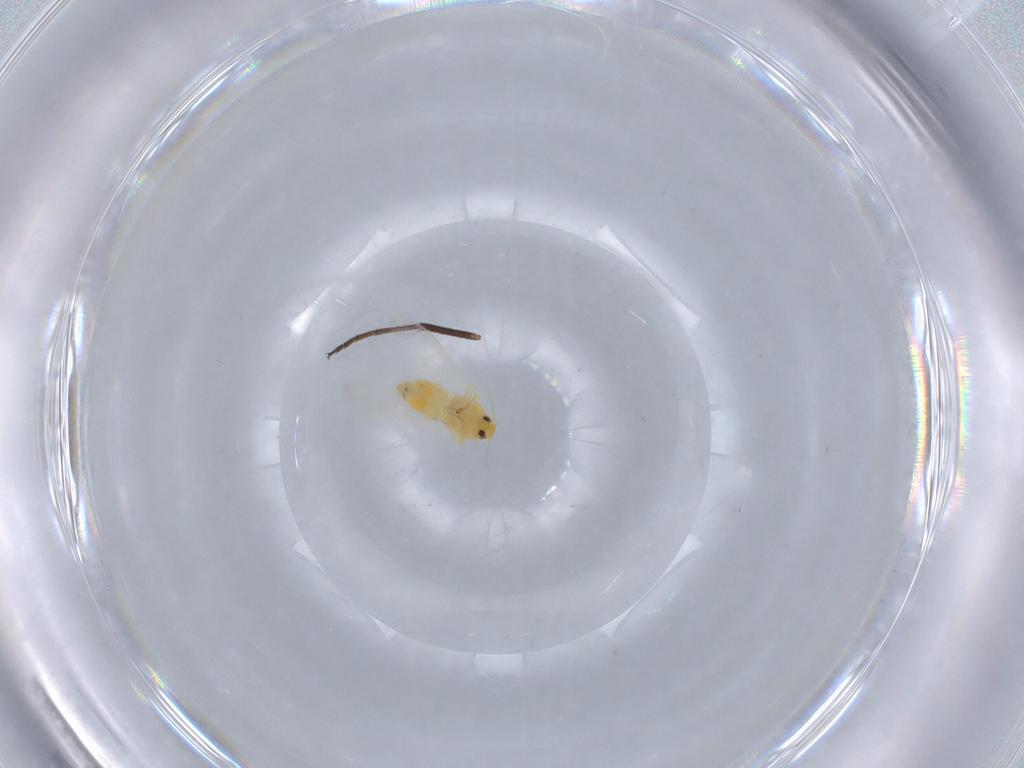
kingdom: Animalia
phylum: Arthropoda
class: Insecta
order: Hemiptera
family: Aleyrodidae
